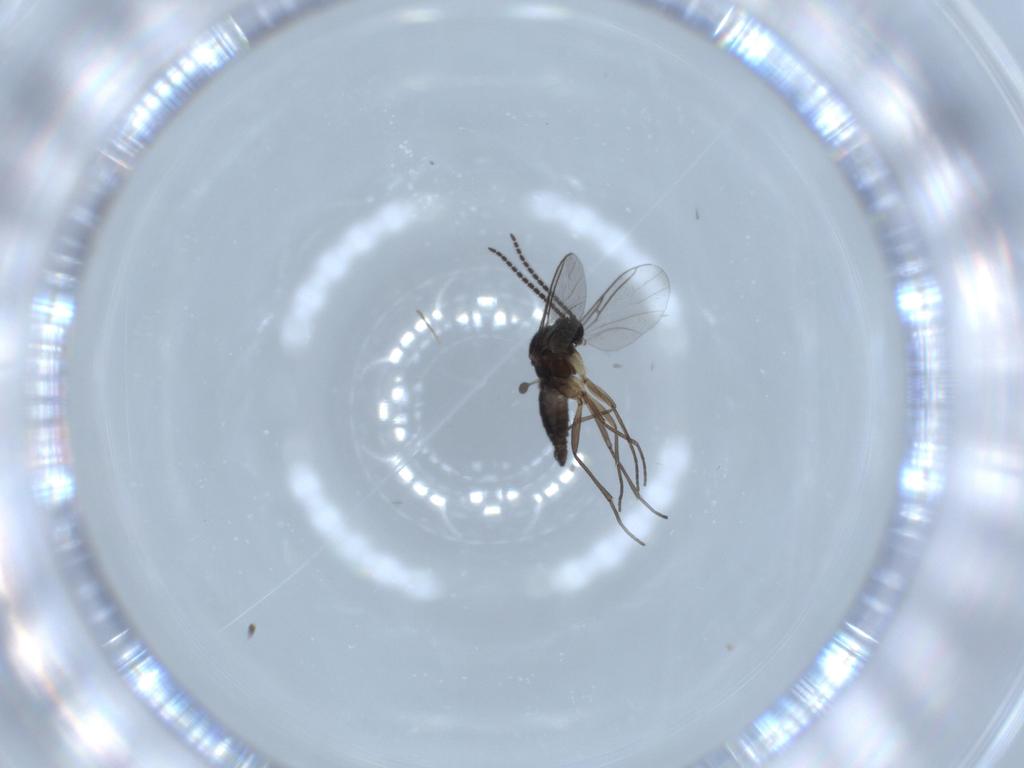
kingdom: Animalia
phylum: Arthropoda
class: Insecta
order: Diptera
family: Sciaridae
